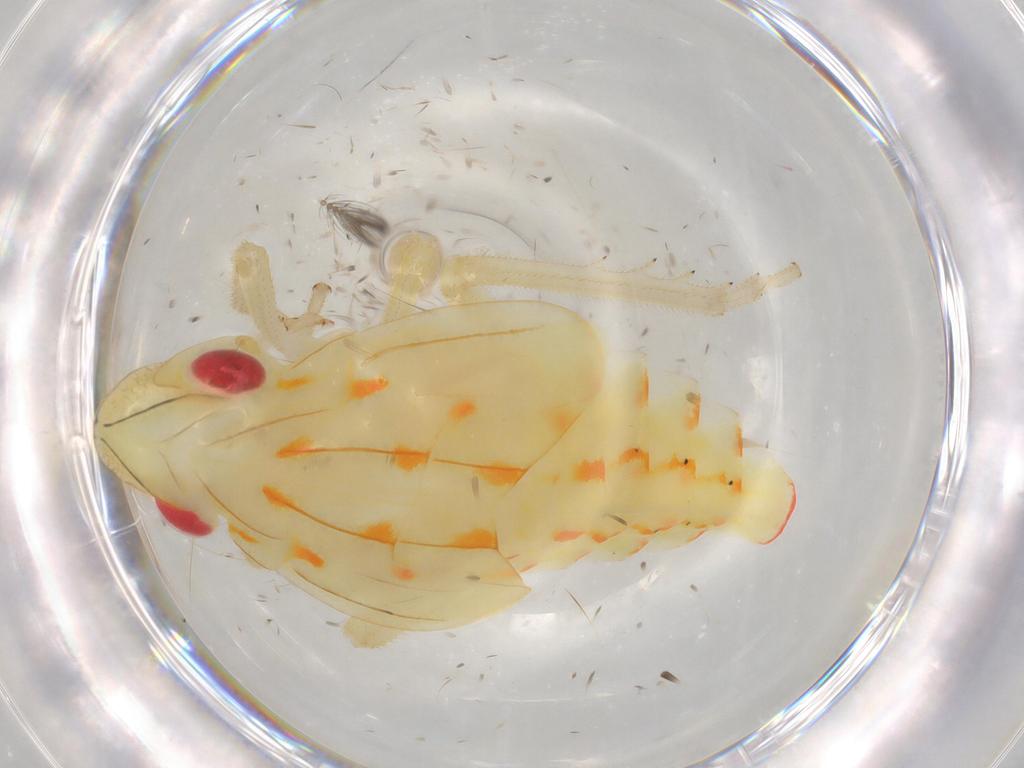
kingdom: Animalia
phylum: Arthropoda
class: Insecta
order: Hemiptera
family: Tropiduchidae
